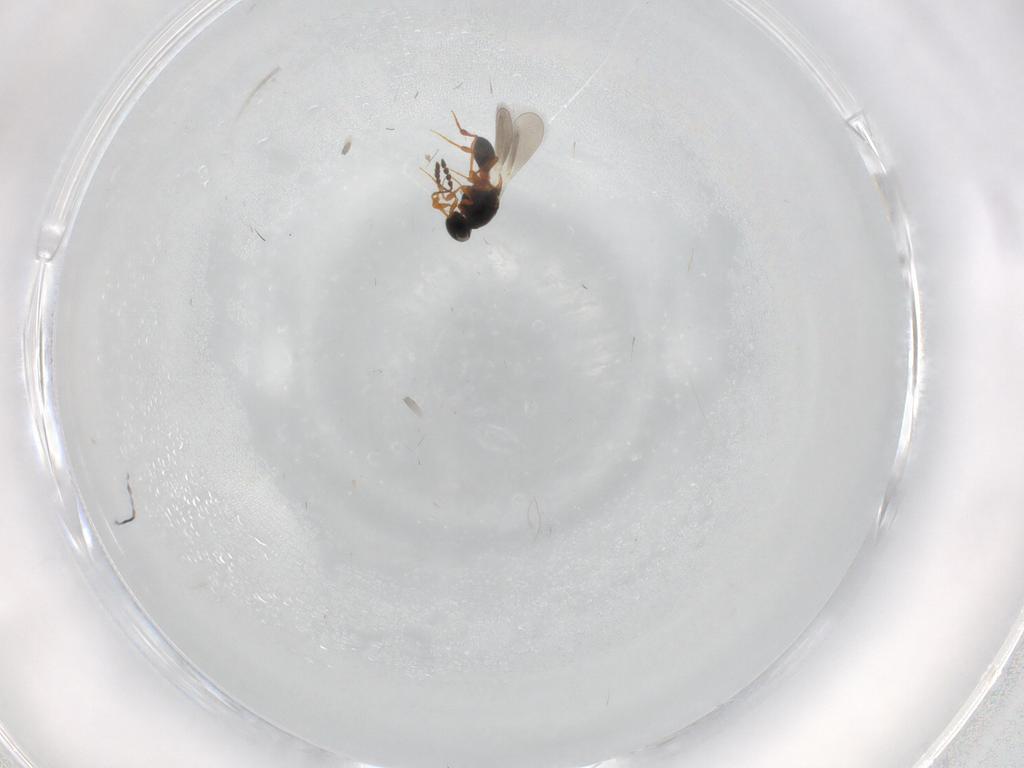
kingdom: Animalia
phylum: Arthropoda
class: Insecta
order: Hymenoptera
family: Platygastridae
